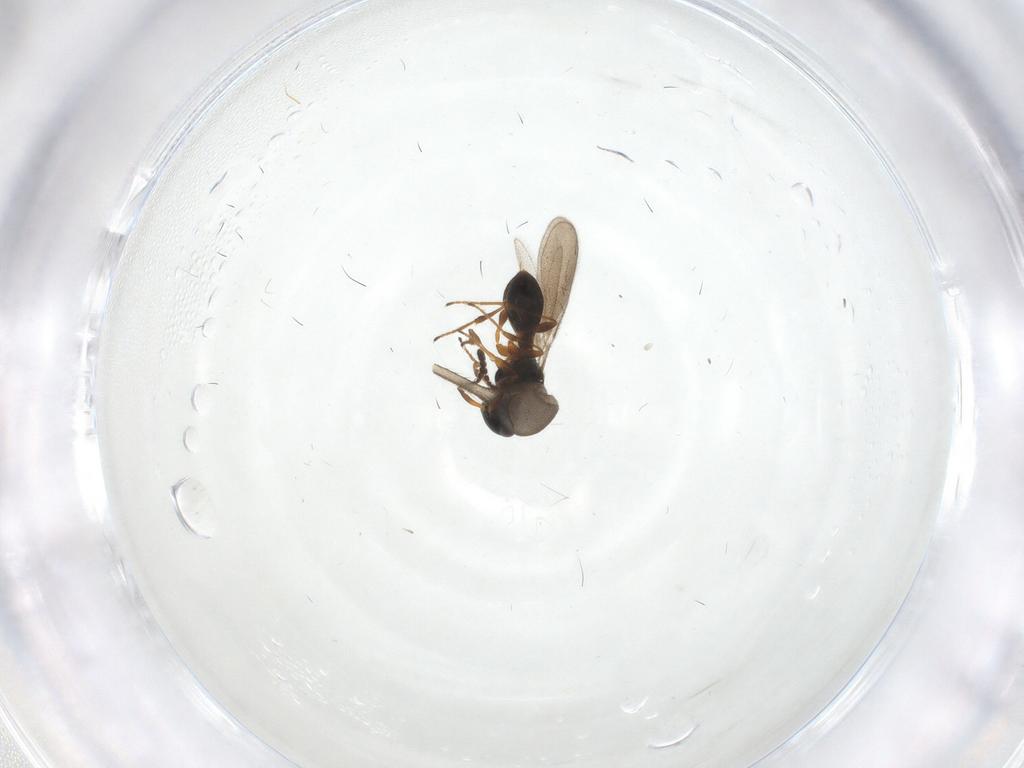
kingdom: Animalia
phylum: Arthropoda
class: Insecta
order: Hymenoptera
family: Platygastridae
